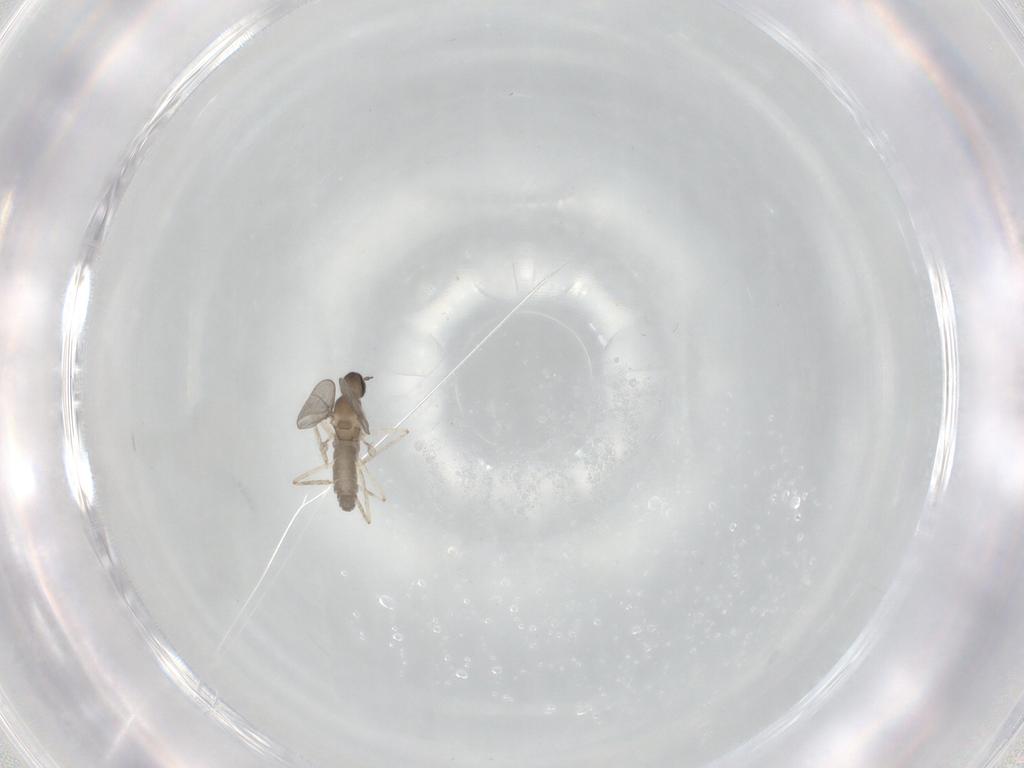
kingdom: Animalia
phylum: Arthropoda
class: Insecta
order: Diptera
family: Cecidomyiidae
